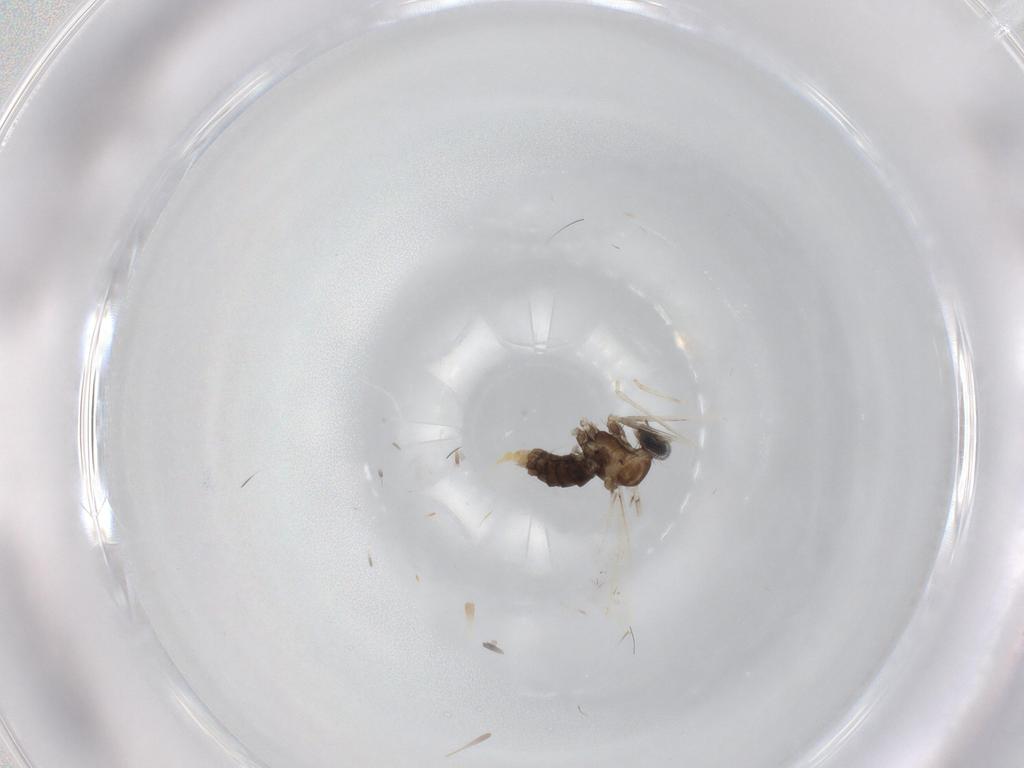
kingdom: Animalia
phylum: Arthropoda
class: Insecta
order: Diptera
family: Cecidomyiidae
